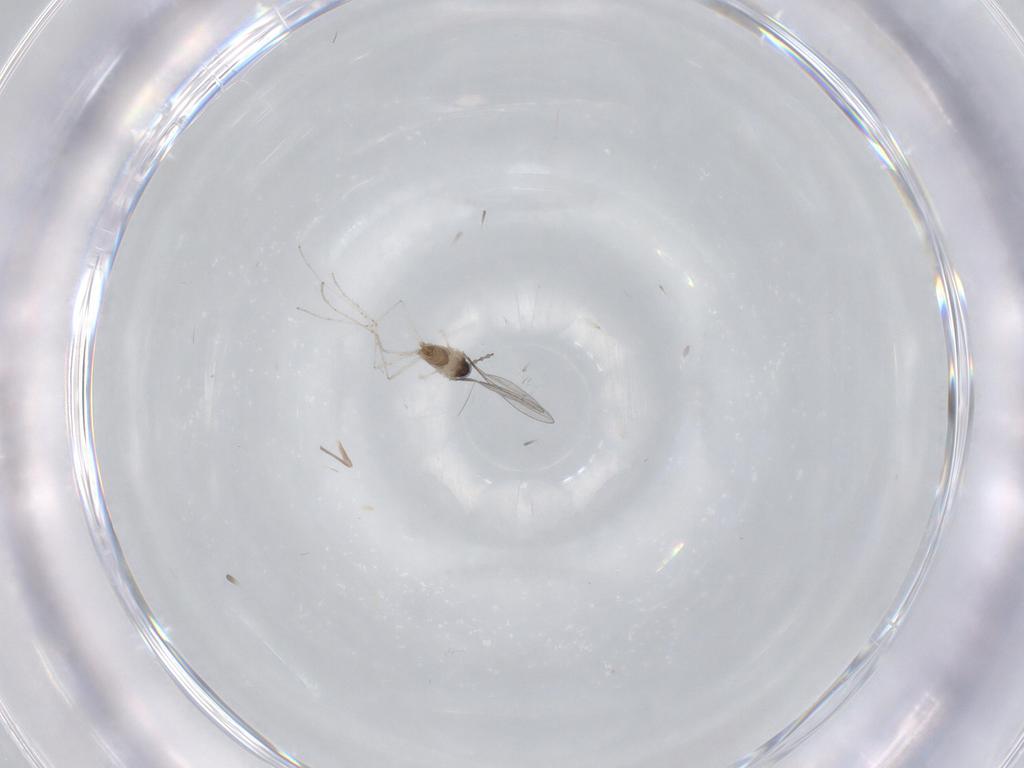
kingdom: Animalia
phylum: Arthropoda
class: Insecta
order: Diptera
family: Cecidomyiidae
